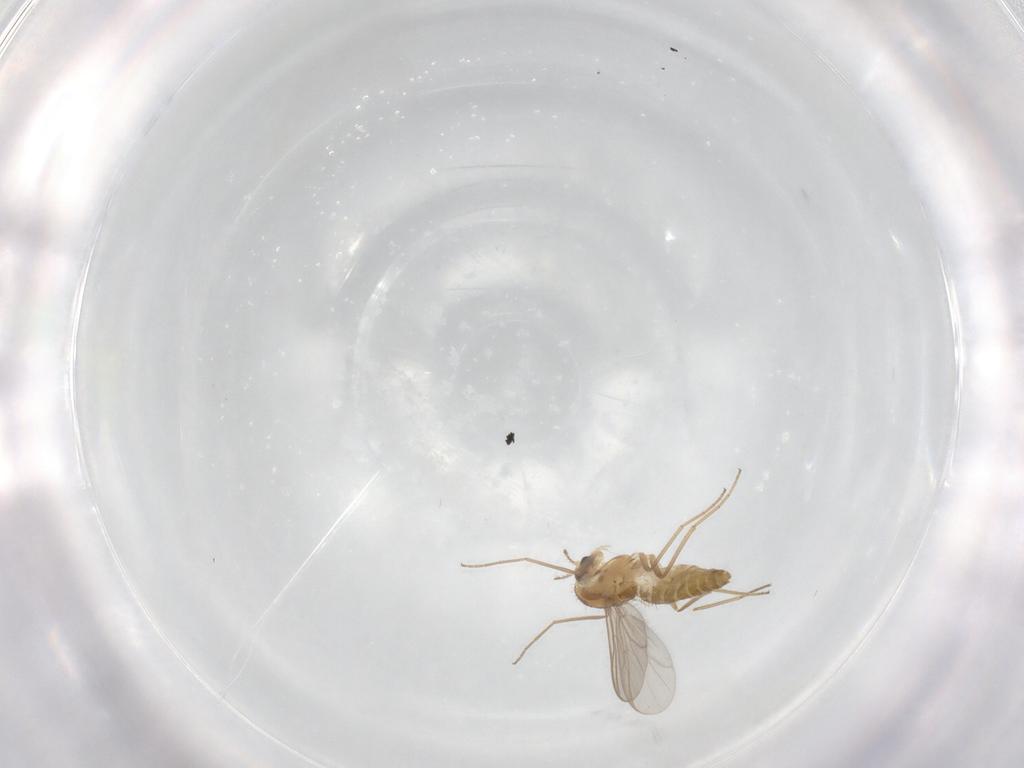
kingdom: Animalia
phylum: Arthropoda
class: Insecta
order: Diptera
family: Chironomidae
